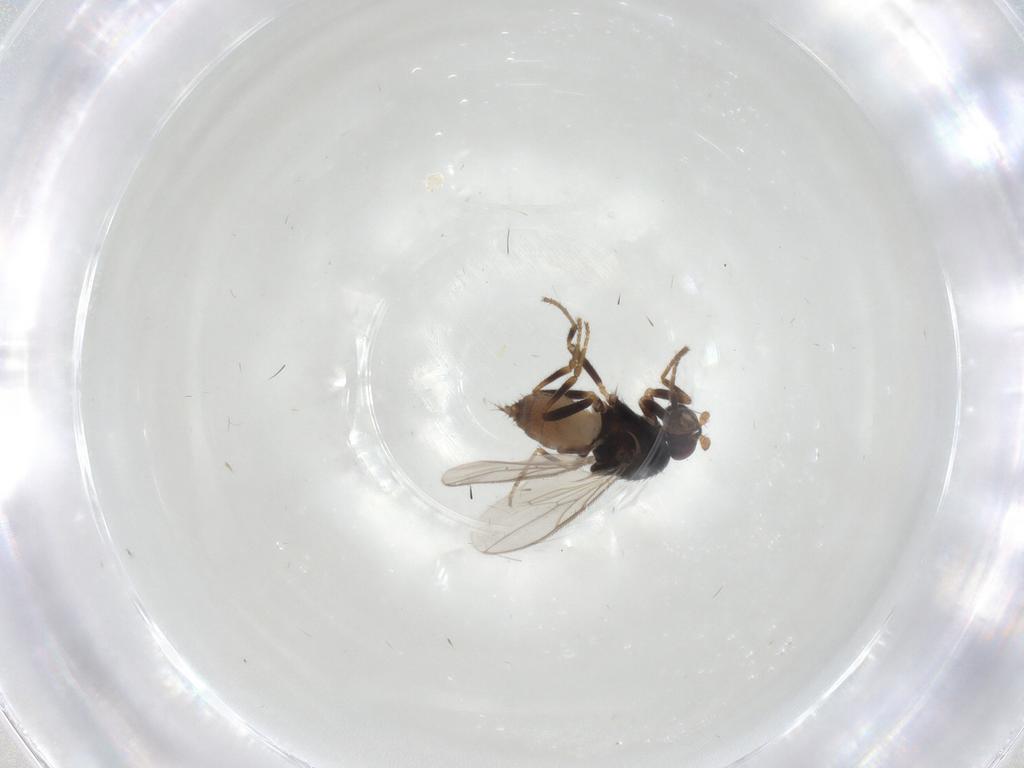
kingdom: Animalia
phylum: Arthropoda
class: Insecta
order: Diptera
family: Sphaeroceridae
